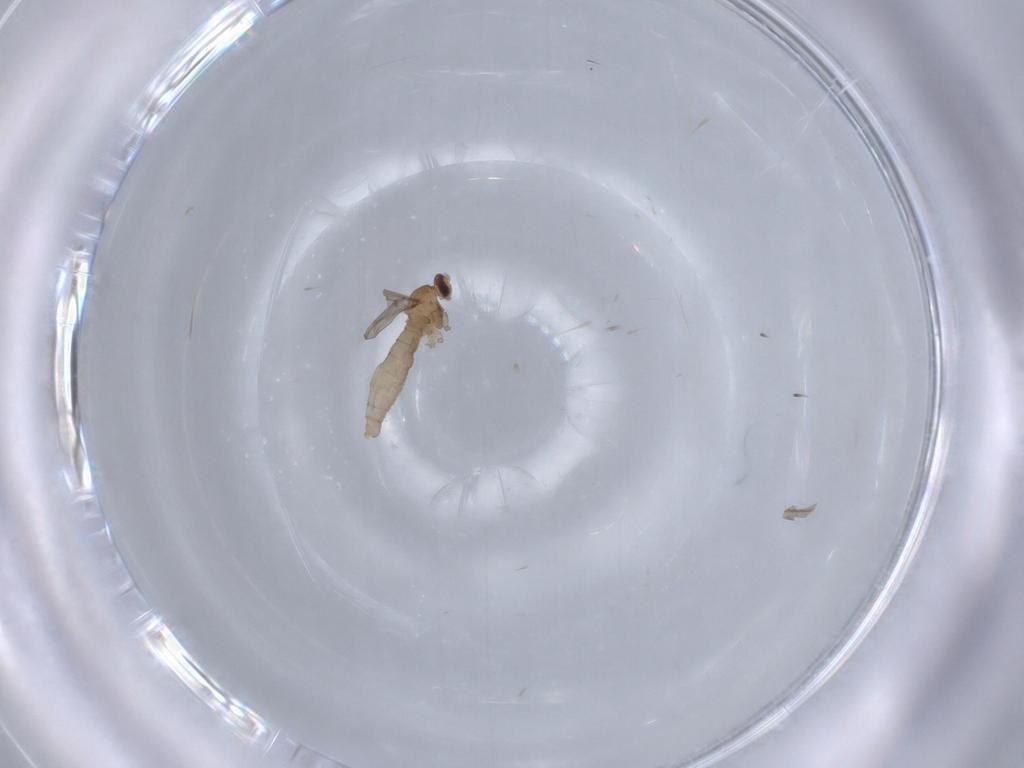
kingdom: Animalia
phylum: Arthropoda
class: Insecta
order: Diptera
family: Cecidomyiidae
